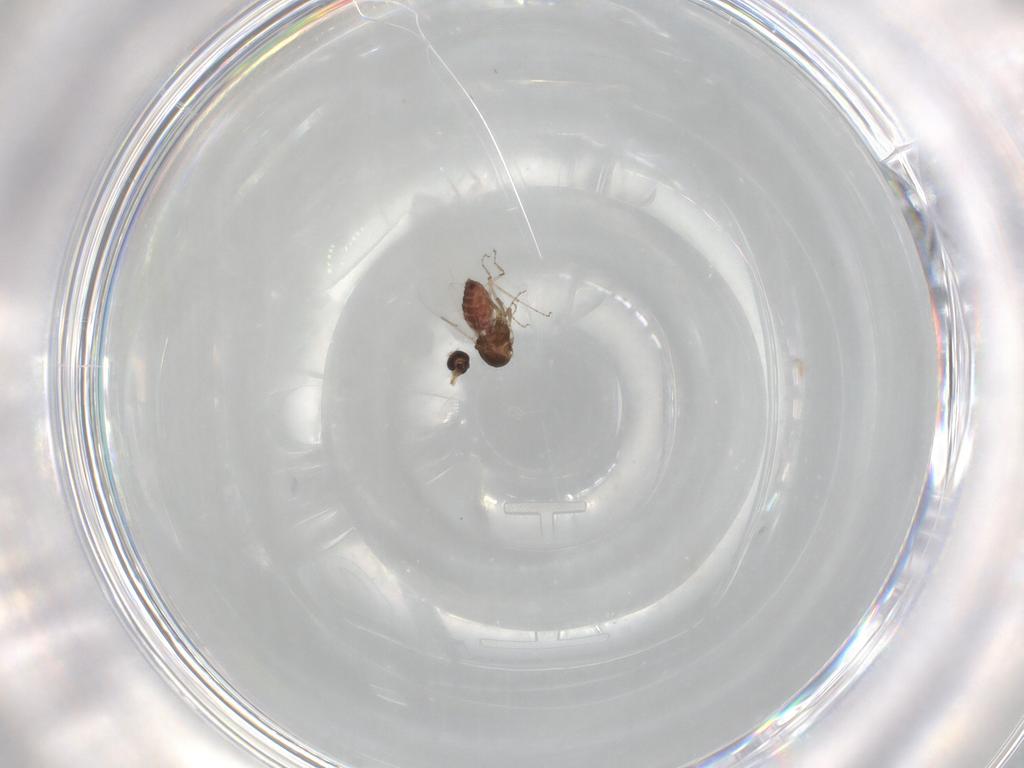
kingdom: Animalia
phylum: Arthropoda
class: Insecta
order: Diptera
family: Ceratopogonidae
